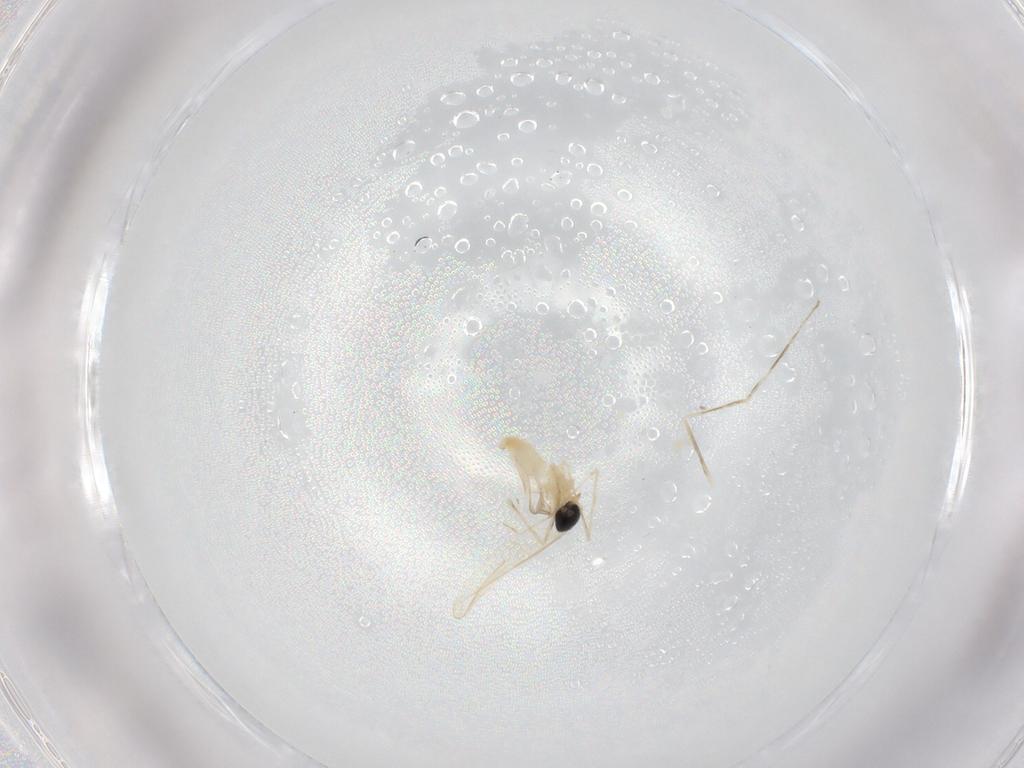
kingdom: Animalia
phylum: Arthropoda
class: Insecta
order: Diptera
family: Cecidomyiidae
